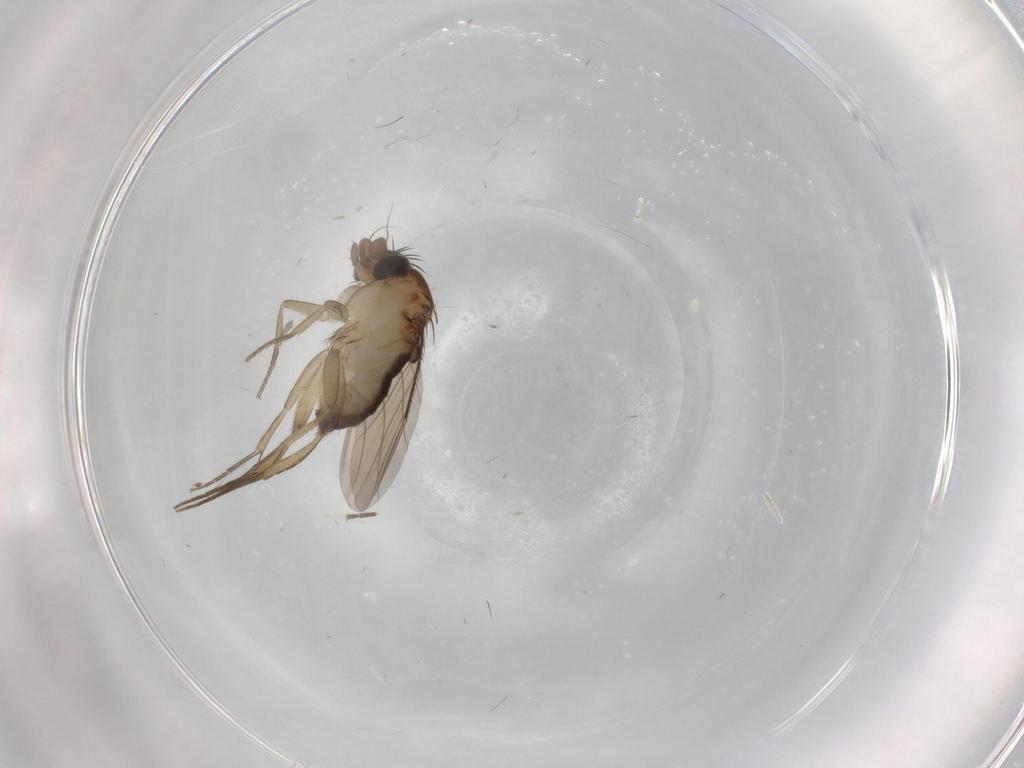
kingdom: Animalia
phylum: Arthropoda
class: Insecta
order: Diptera
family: Phoridae
